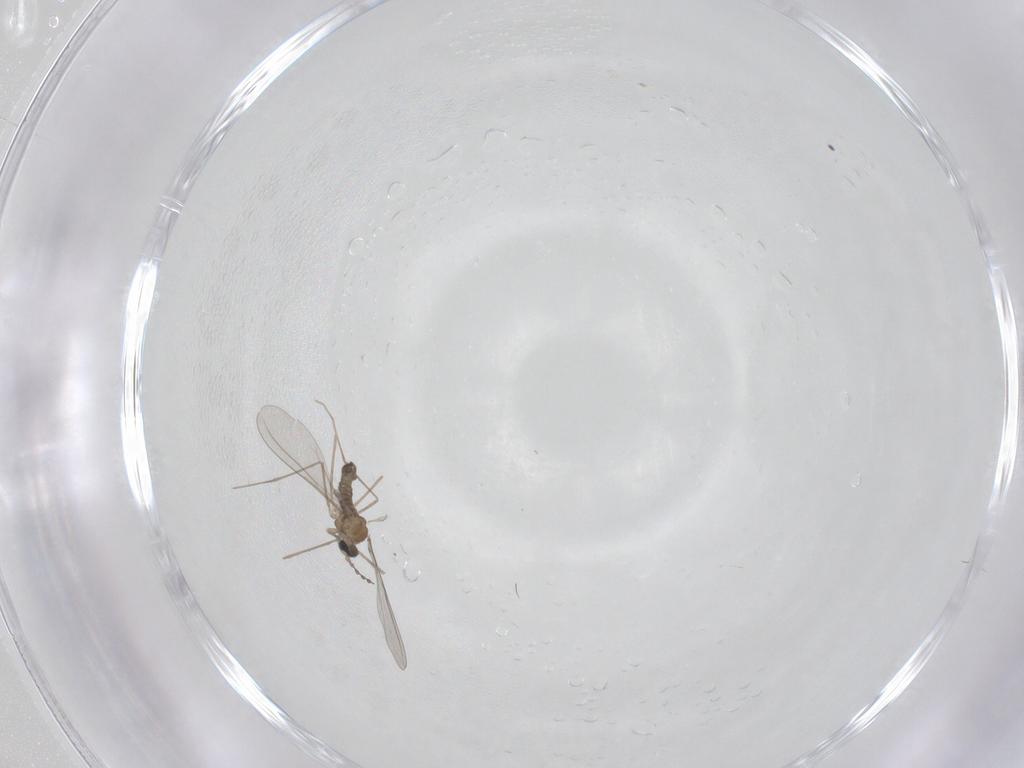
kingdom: Animalia
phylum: Arthropoda
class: Insecta
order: Diptera
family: Cecidomyiidae
